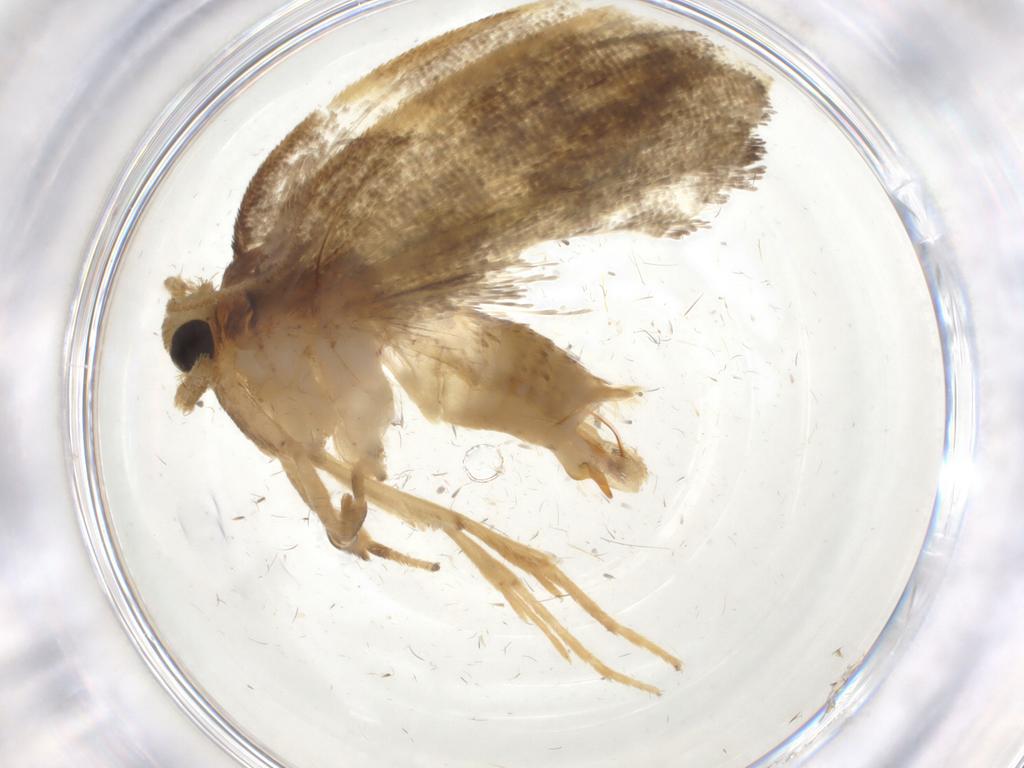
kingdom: Animalia
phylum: Arthropoda
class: Insecta
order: Lepidoptera
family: Psychidae
